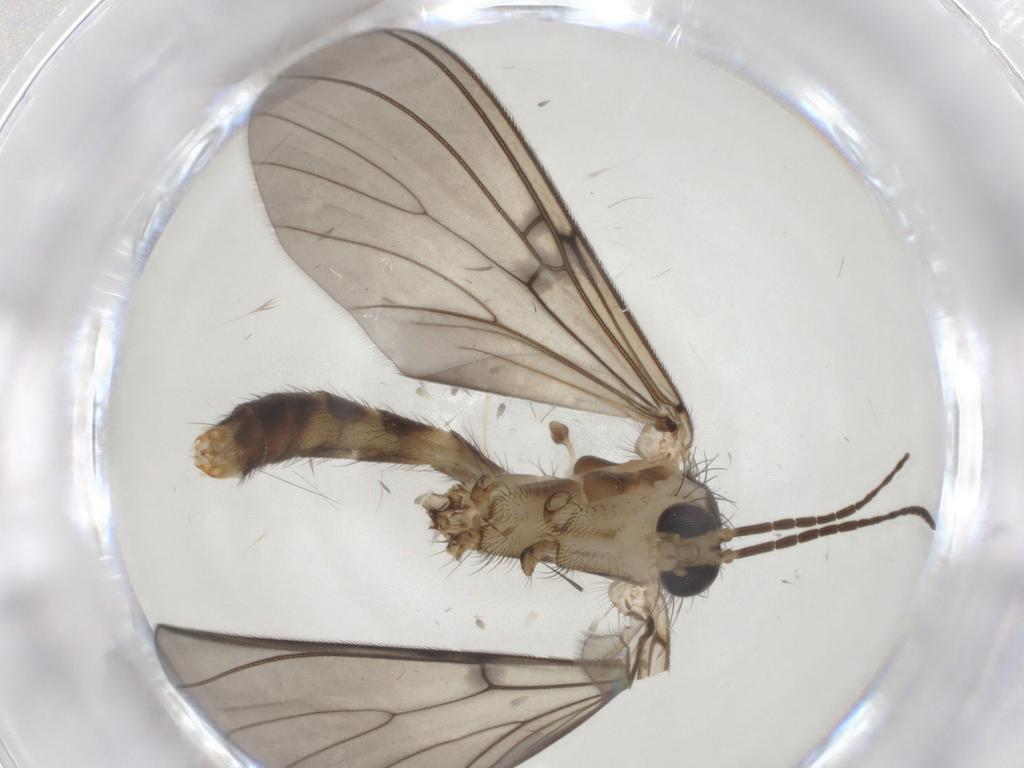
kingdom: Animalia
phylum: Arthropoda
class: Insecta
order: Diptera
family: Mycetophilidae
